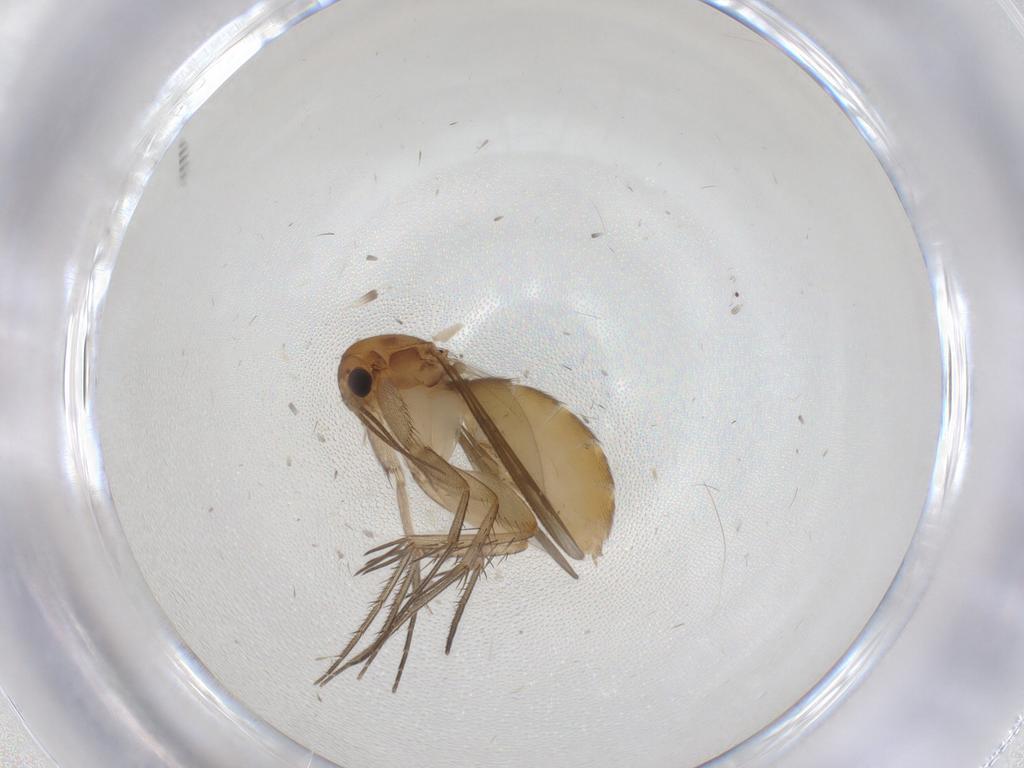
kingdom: Animalia
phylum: Arthropoda
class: Insecta
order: Diptera
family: Mycetophilidae
